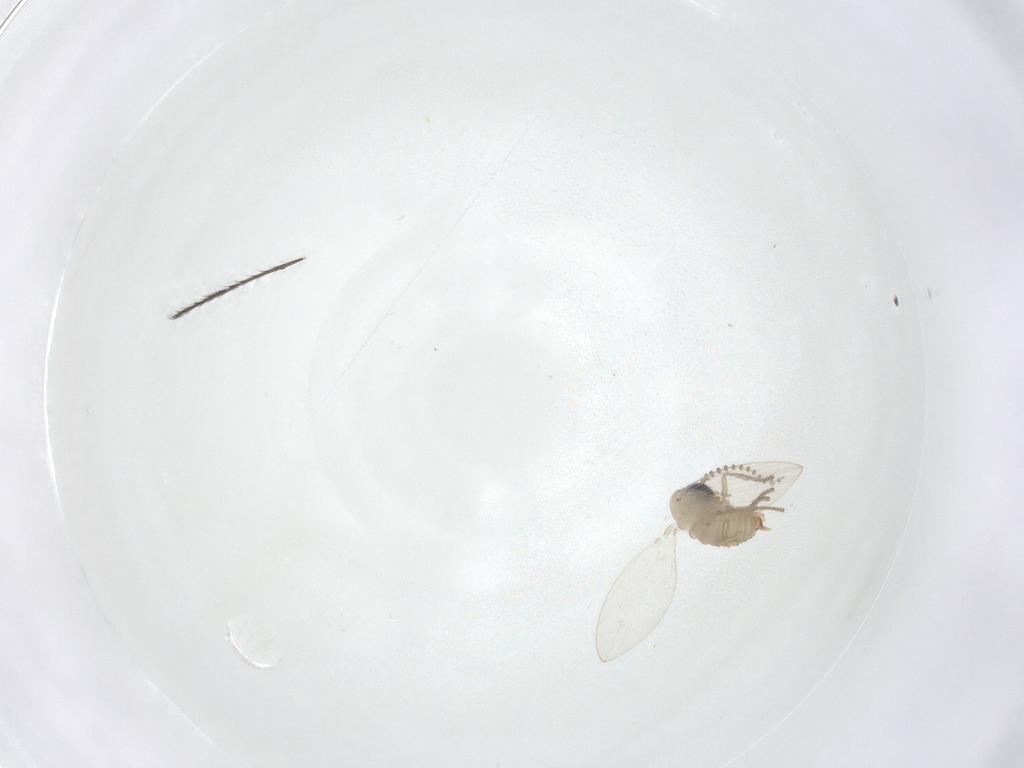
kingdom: Animalia
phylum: Arthropoda
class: Insecta
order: Diptera
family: Psychodidae
